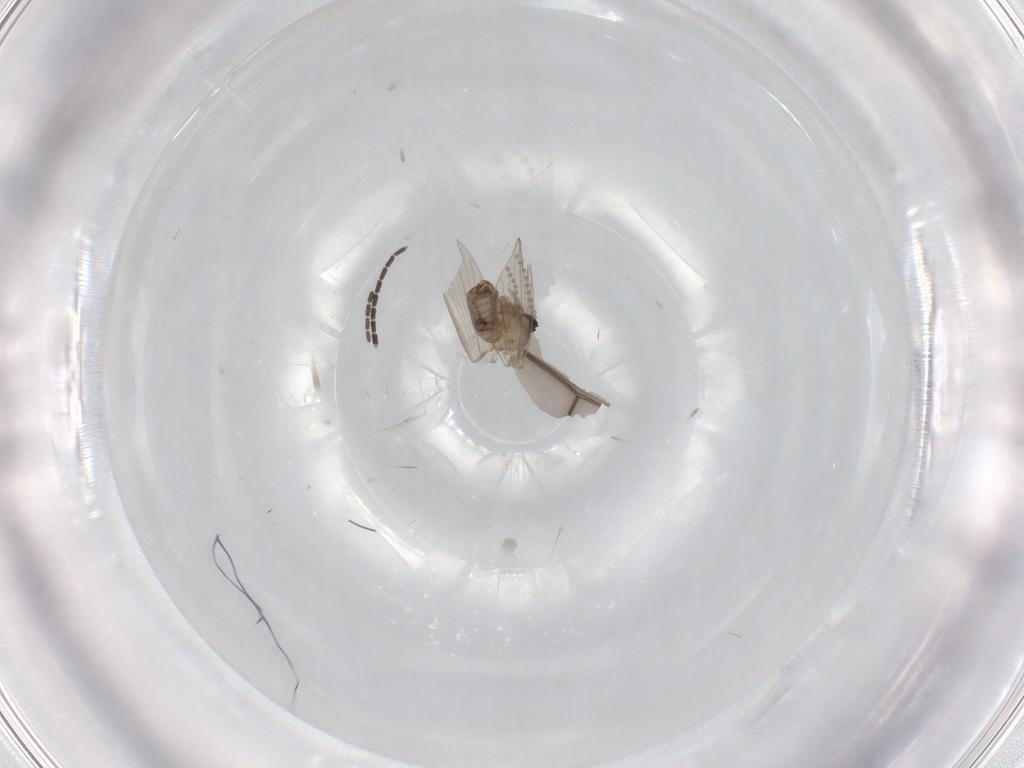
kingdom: Animalia
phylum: Arthropoda
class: Insecta
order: Diptera
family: Psychodidae
